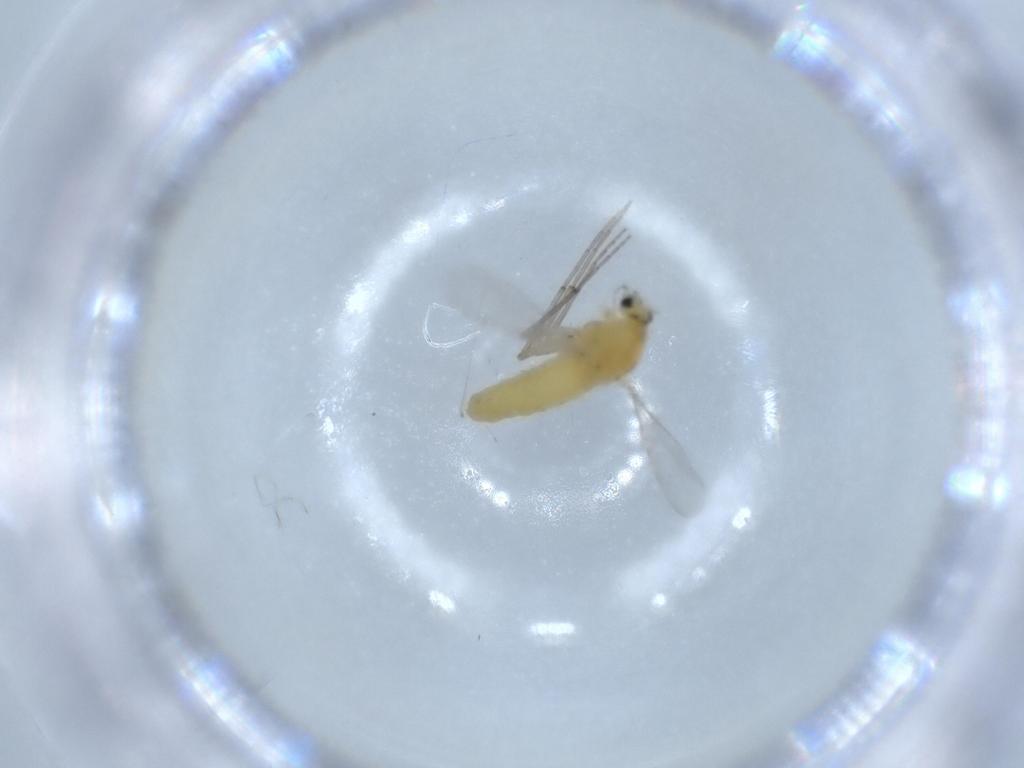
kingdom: Animalia
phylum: Arthropoda
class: Insecta
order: Diptera
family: Chironomidae
